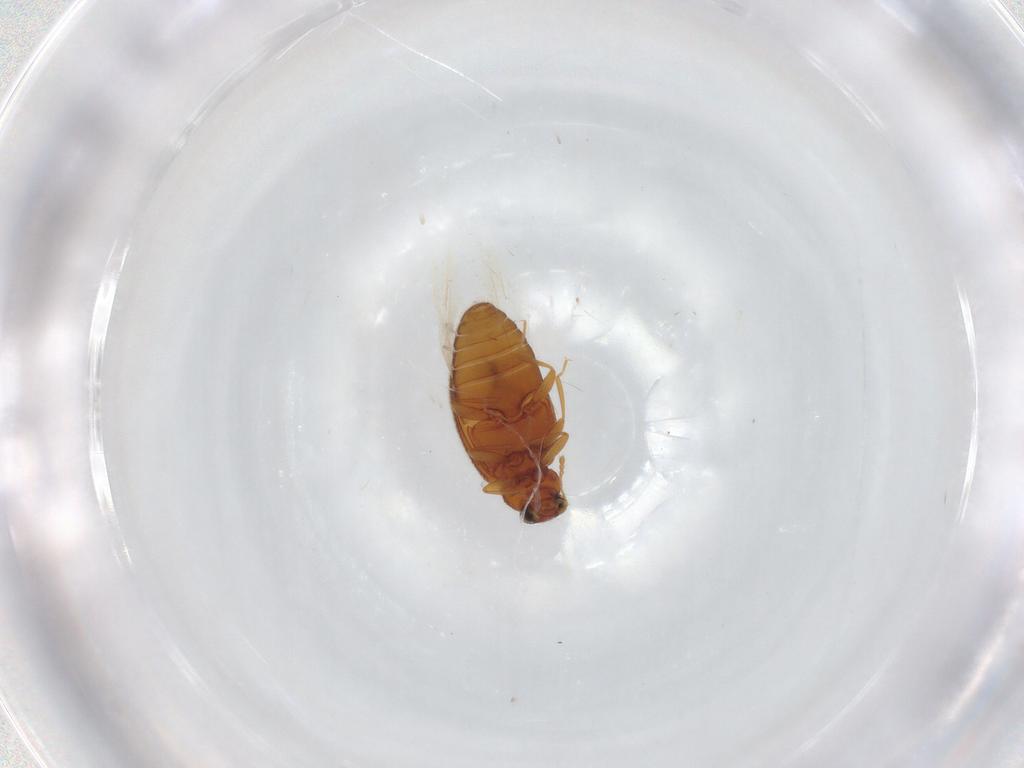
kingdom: Animalia
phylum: Arthropoda
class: Insecta
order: Coleoptera
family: Latridiidae
